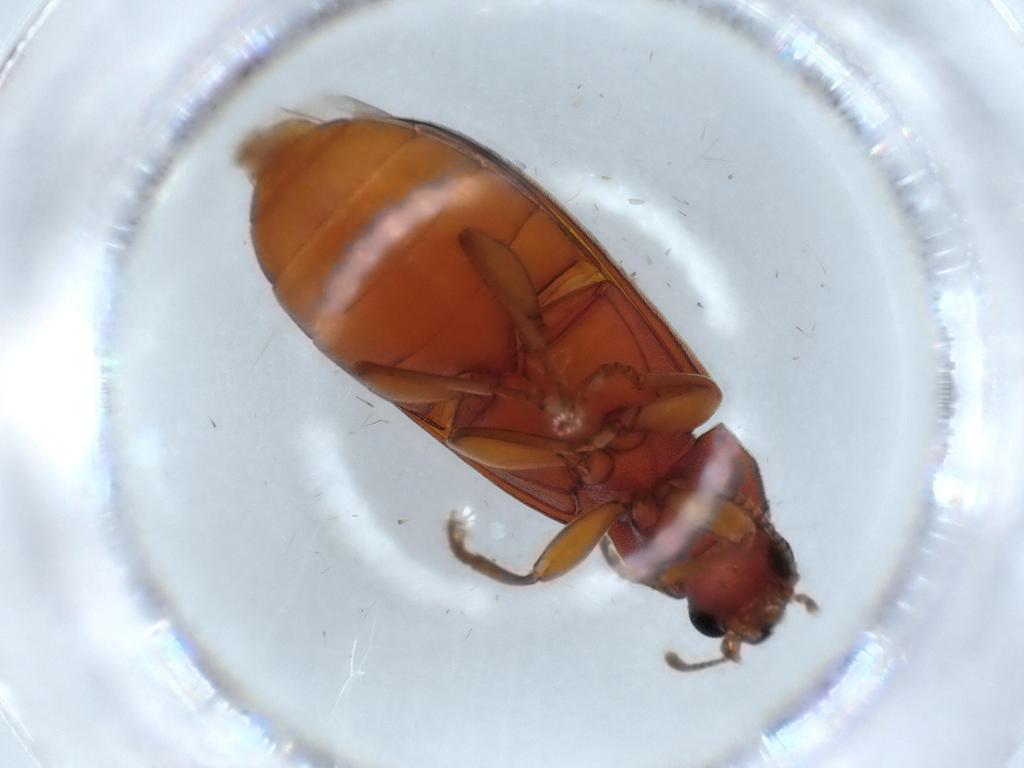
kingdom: Animalia
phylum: Arthropoda
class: Insecta
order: Coleoptera
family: Mycteridae
